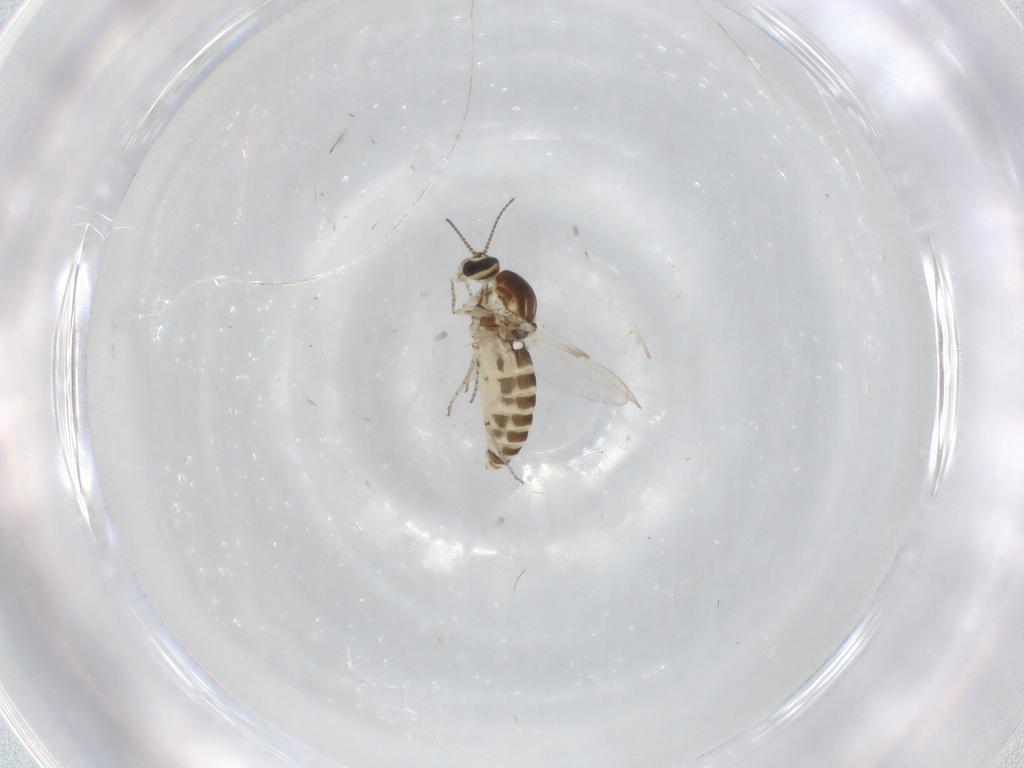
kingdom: Animalia
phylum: Arthropoda
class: Insecta
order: Diptera
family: Ceratopogonidae
